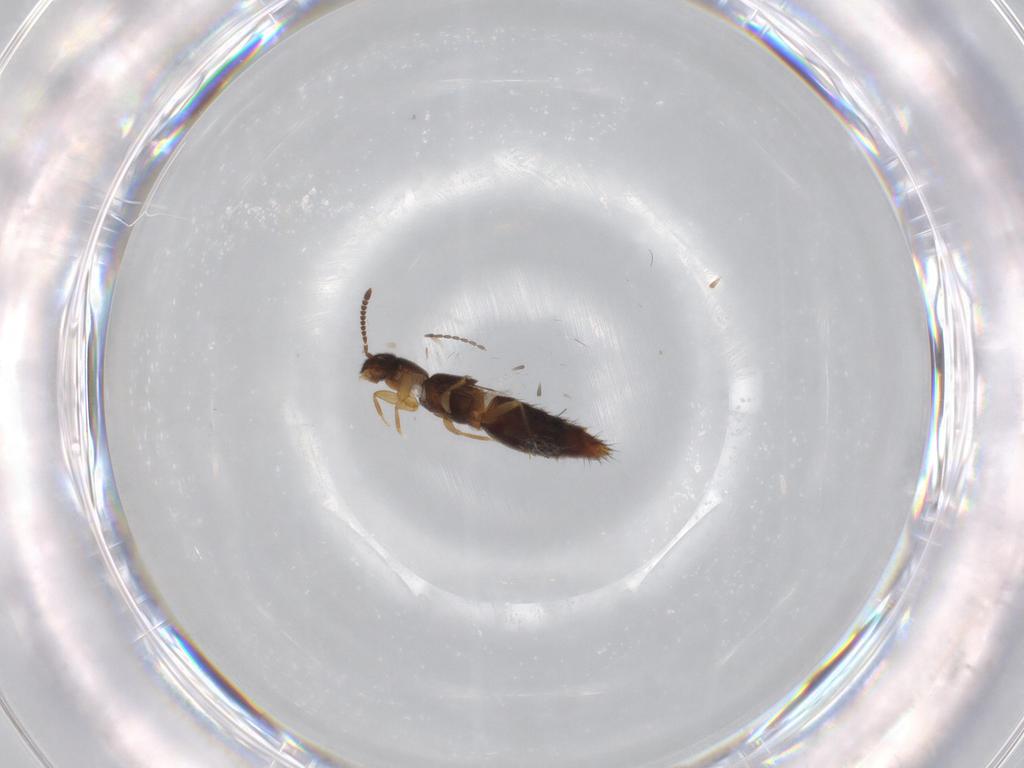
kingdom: Animalia
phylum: Arthropoda
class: Insecta
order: Coleoptera
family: Staphylinidae
